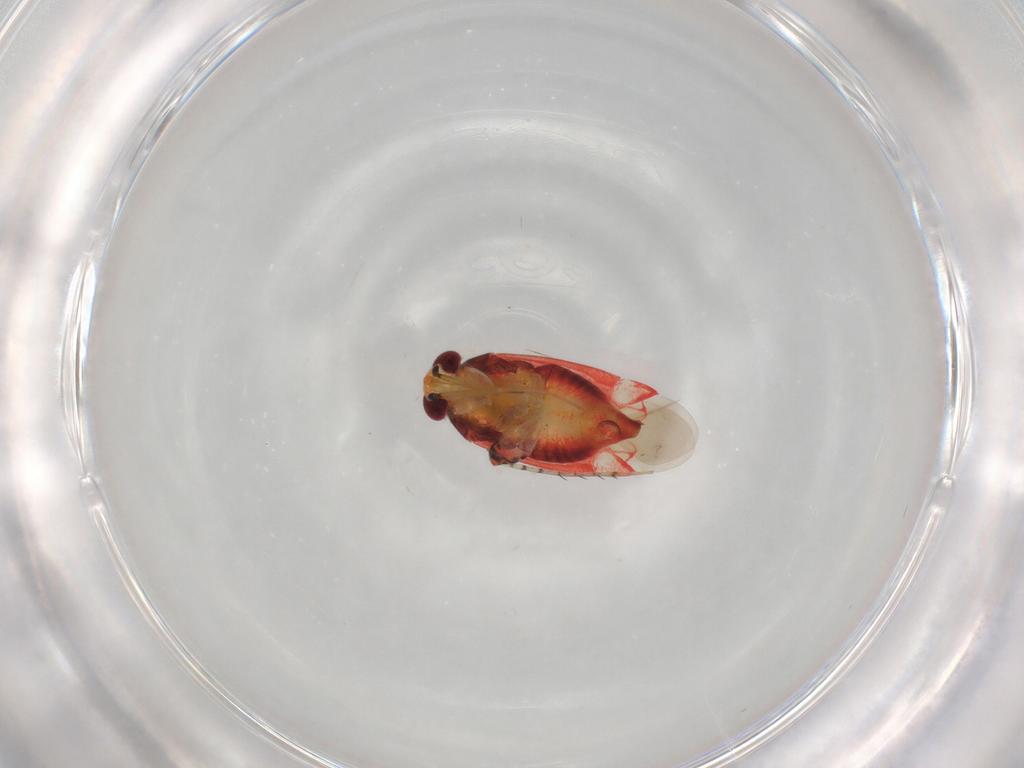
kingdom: Animalia
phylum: Arthropoda
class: Insecta
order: Hemiptera
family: Miridae
